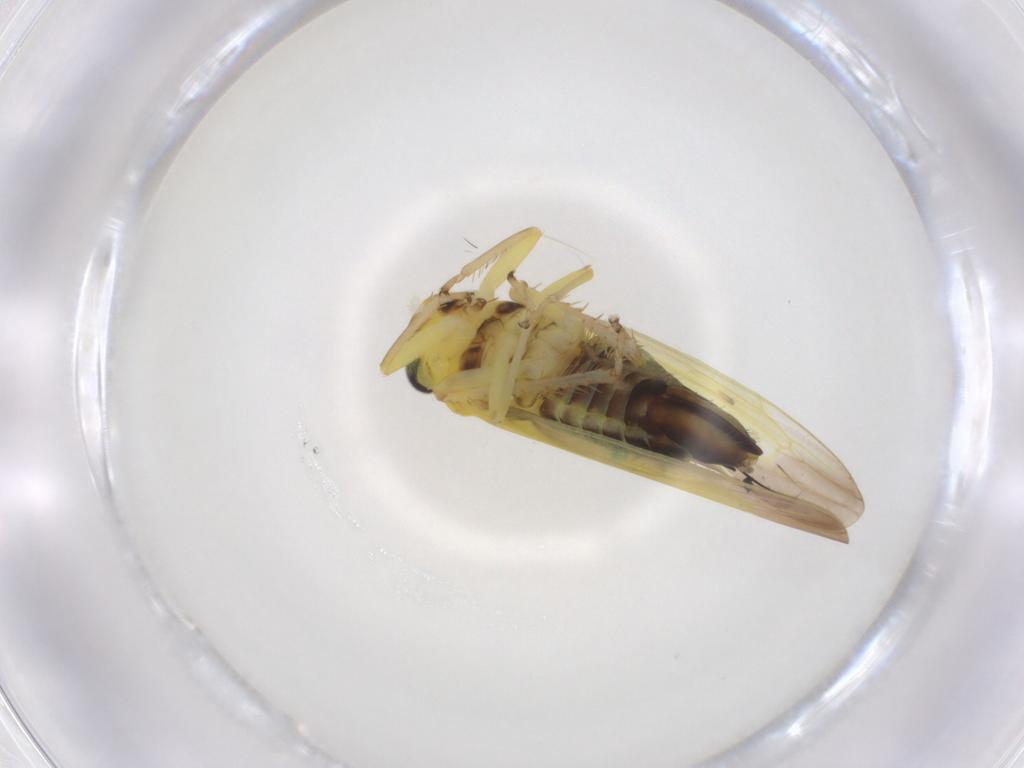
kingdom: Animalia
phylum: Arthropoda
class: Insecta
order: Hemiptera
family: Cicadellidae
